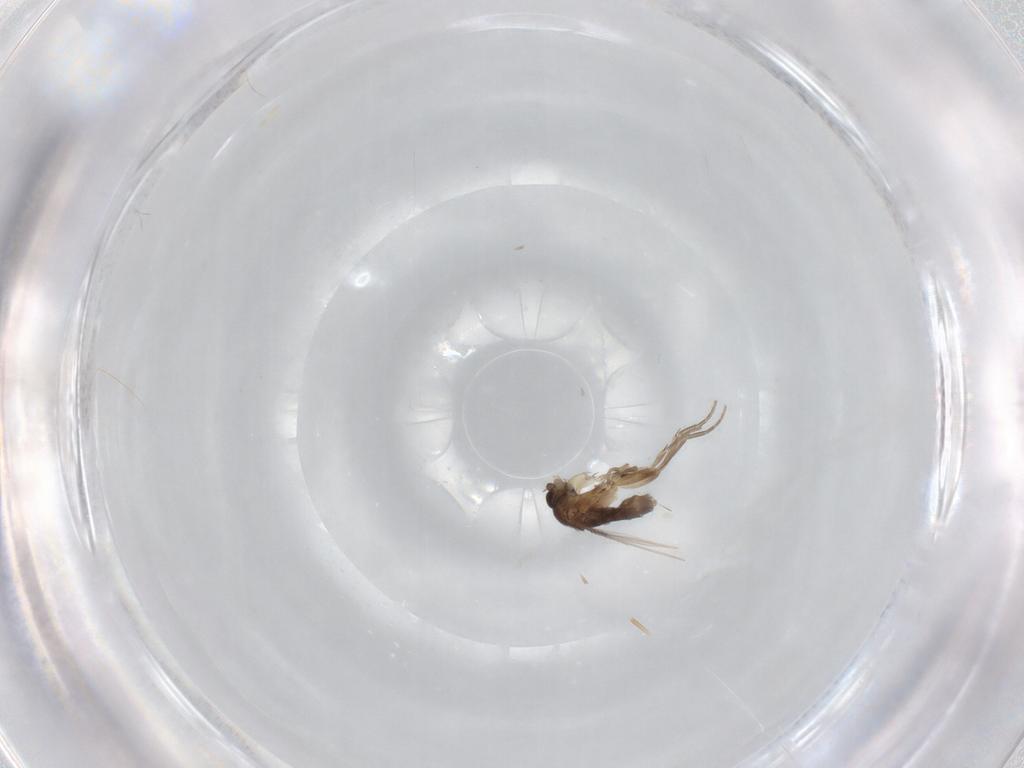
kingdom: Animalia
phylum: Arthropoda
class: Insecta
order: Diptera
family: Phoridae
